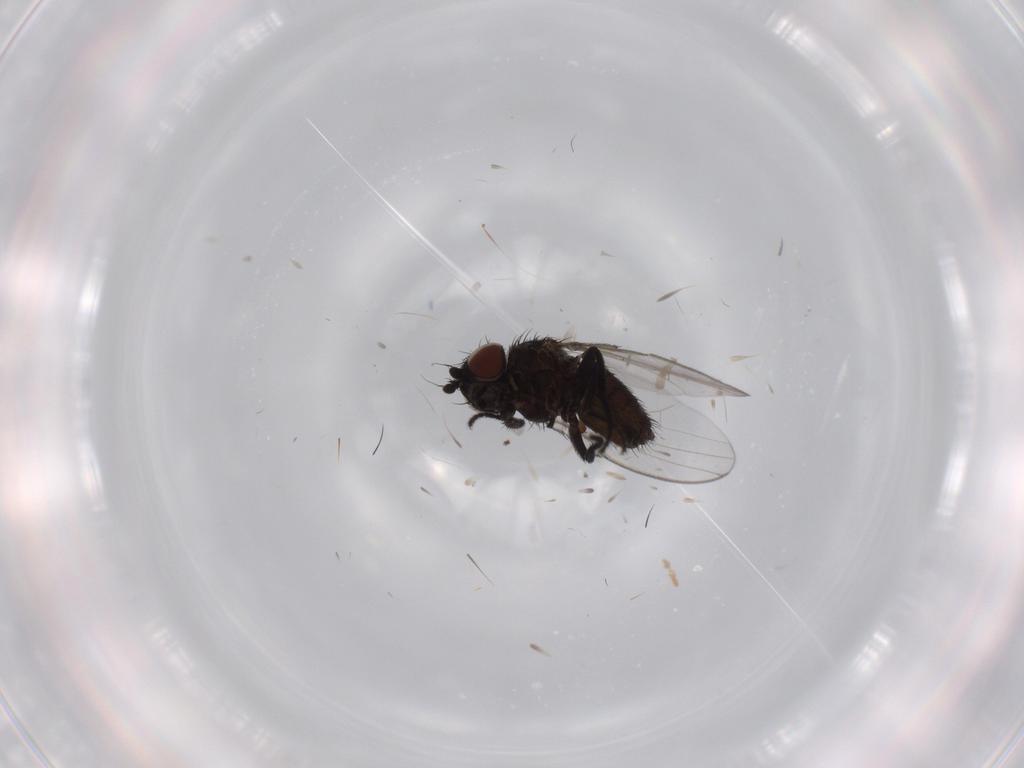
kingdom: Animalia
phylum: Arthropoda
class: Insecta
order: Diptera
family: Milichiidae
